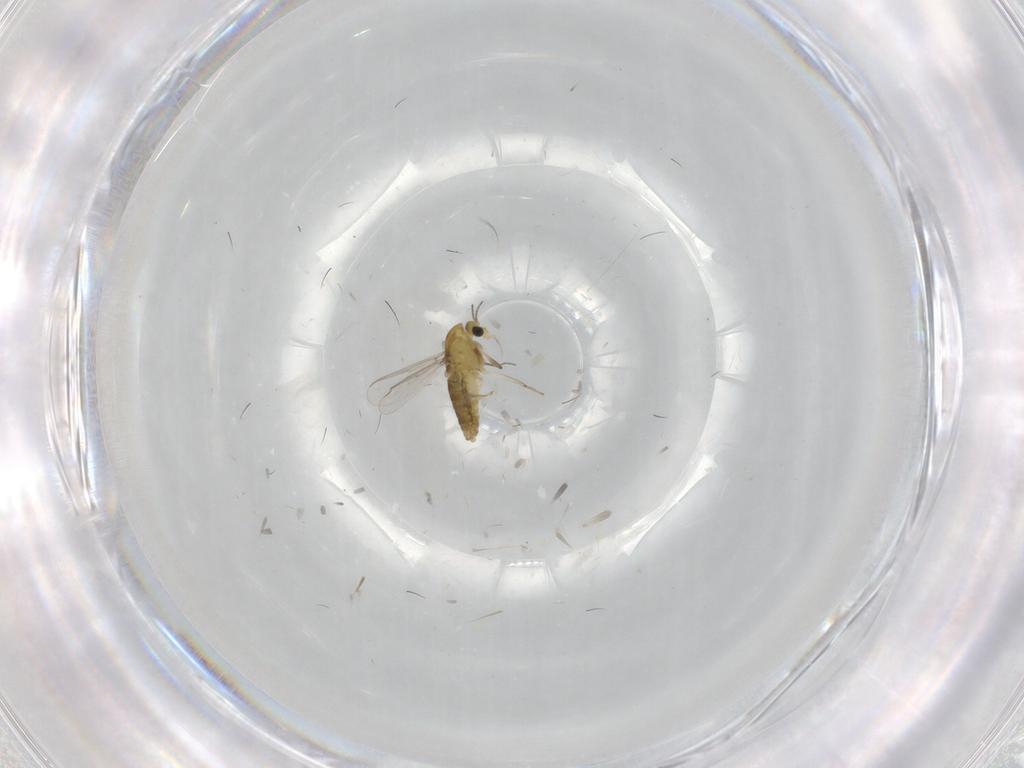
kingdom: Animalia
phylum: Arthropoda
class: Insecta
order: Diptera
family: Chironomidae
